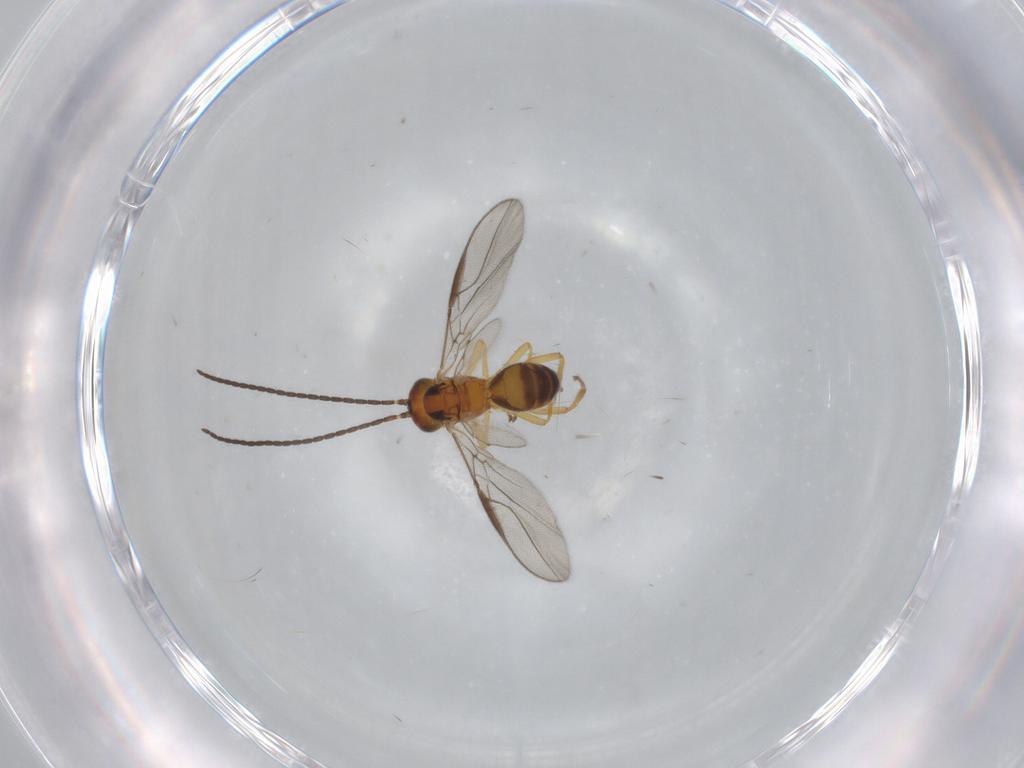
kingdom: Animalia
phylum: Arthropoda
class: Insecta
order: Hymenoptera
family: Braconidae
